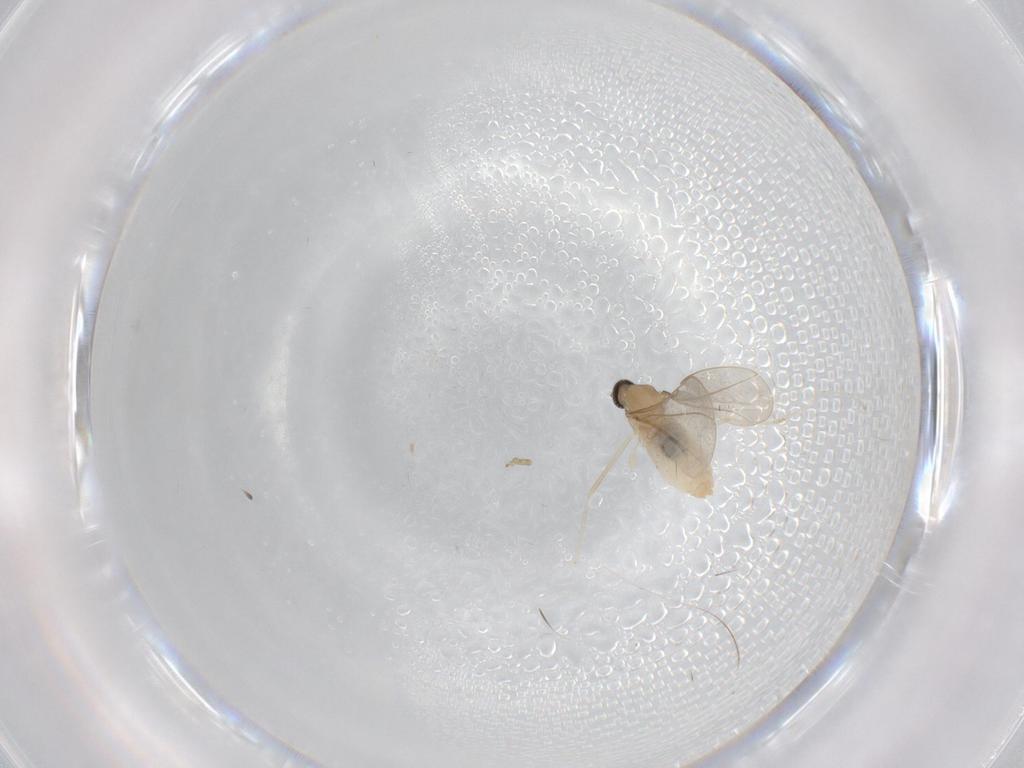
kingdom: Animalia
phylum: Arthropoda
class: Insecta
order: Diptera
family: Cecidomyiidae
